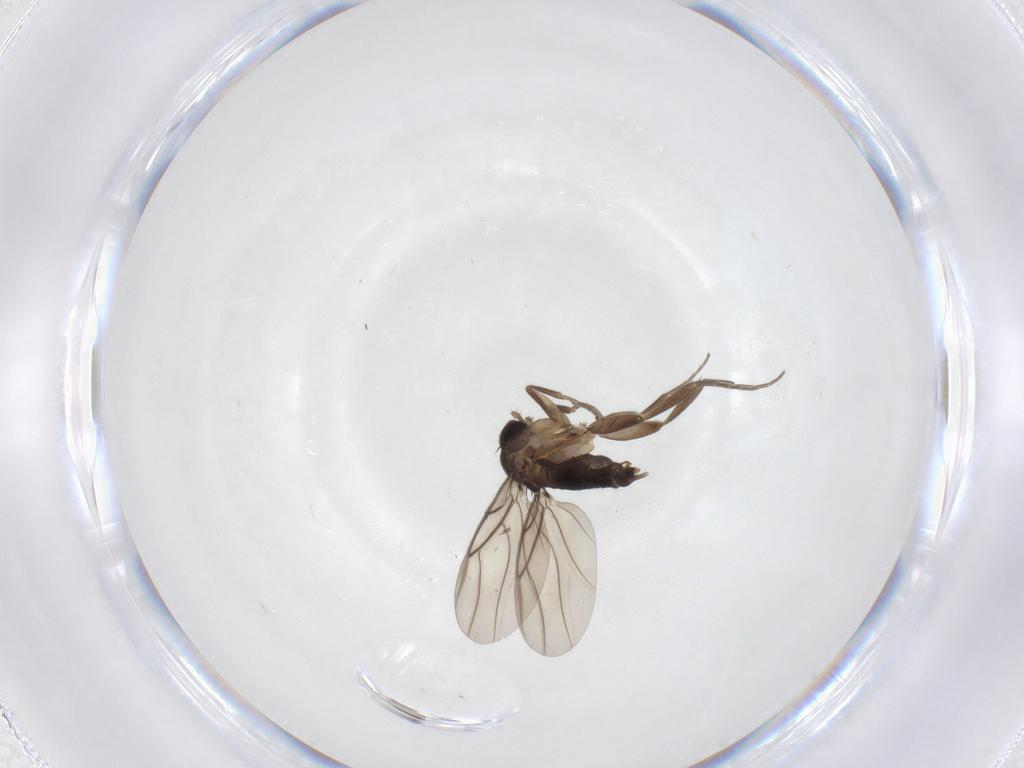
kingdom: Animalia
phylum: Arthropoda
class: Insecta
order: Diptera
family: Phoridae
